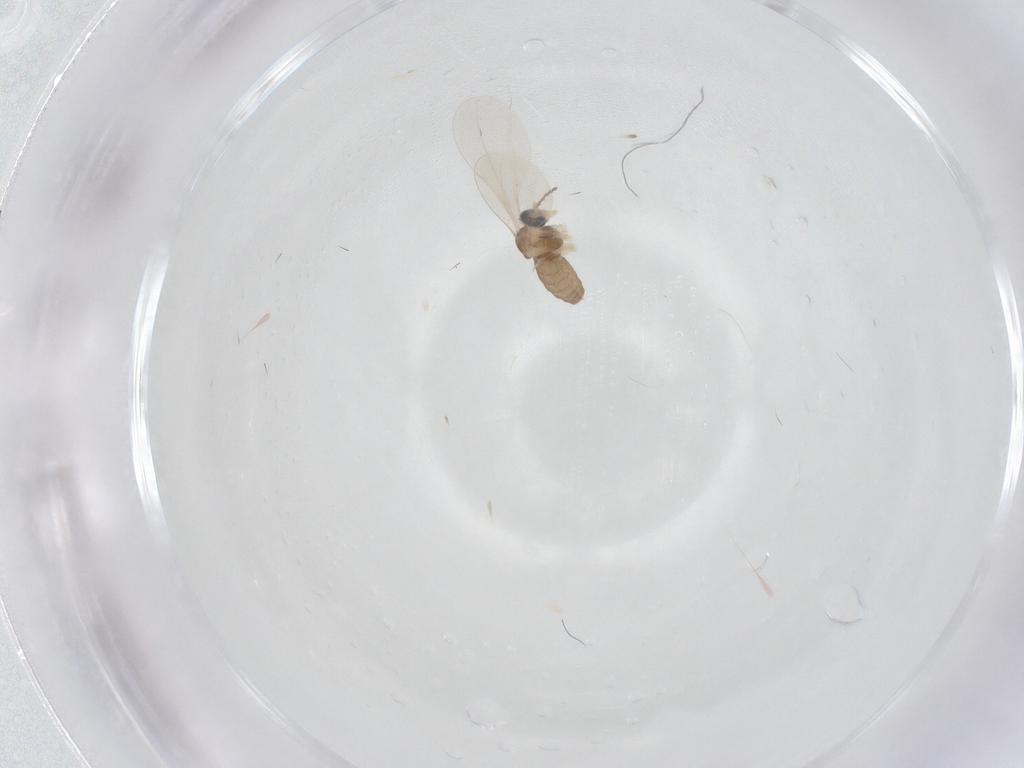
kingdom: Animalia
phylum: Arthropoda
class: Insecta
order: Diptera
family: Cecidomyiidae
